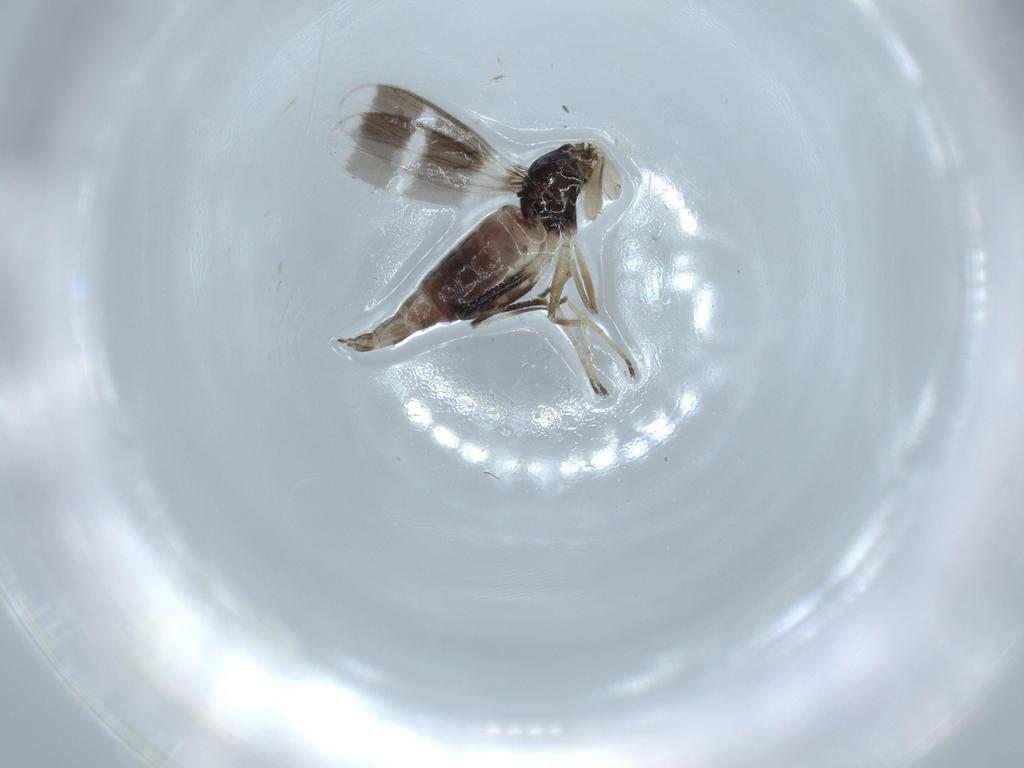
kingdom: Animalia
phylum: Arthropoda
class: Insecta
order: Diptera
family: Hybotidae
